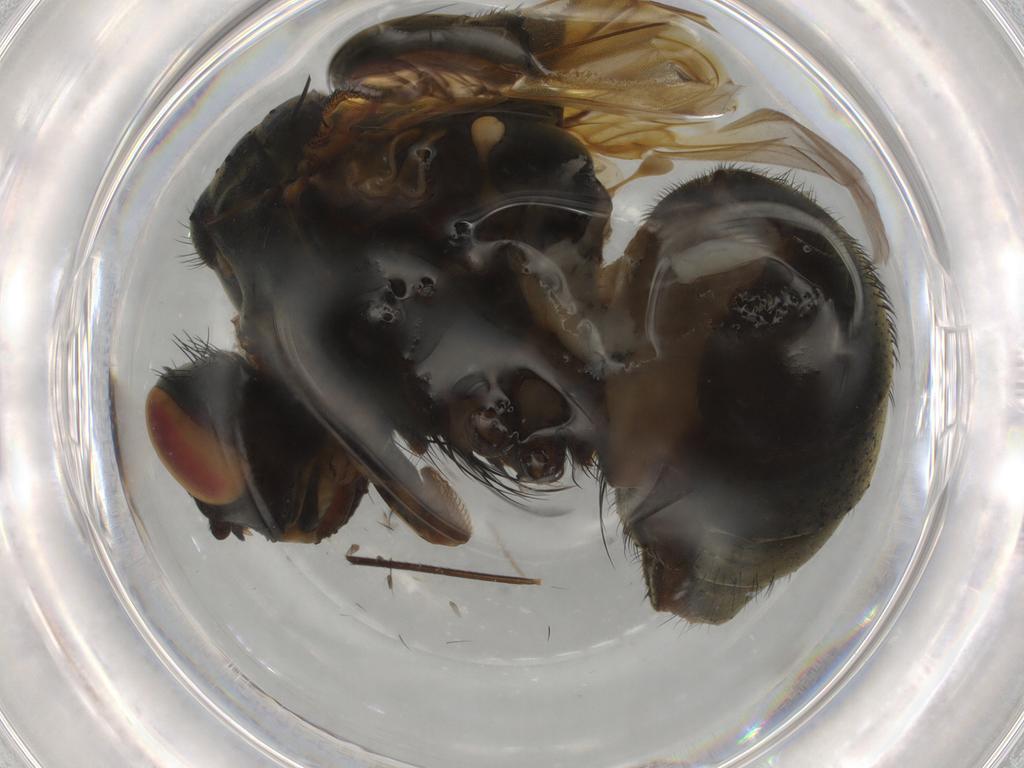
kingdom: Animalia
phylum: Arthropoda
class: Insecta
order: Diptera
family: Anthomyiidae
